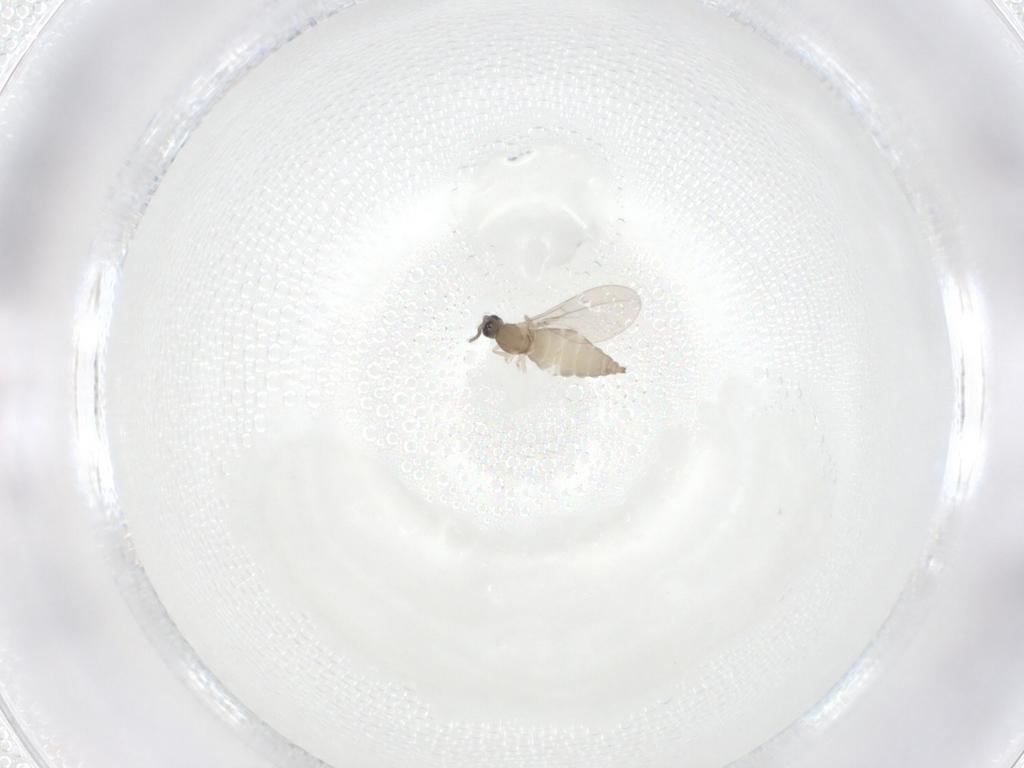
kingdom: Animalia
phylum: Arthropoda
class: Insecta
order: Diptera
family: Cecidomyiidae
